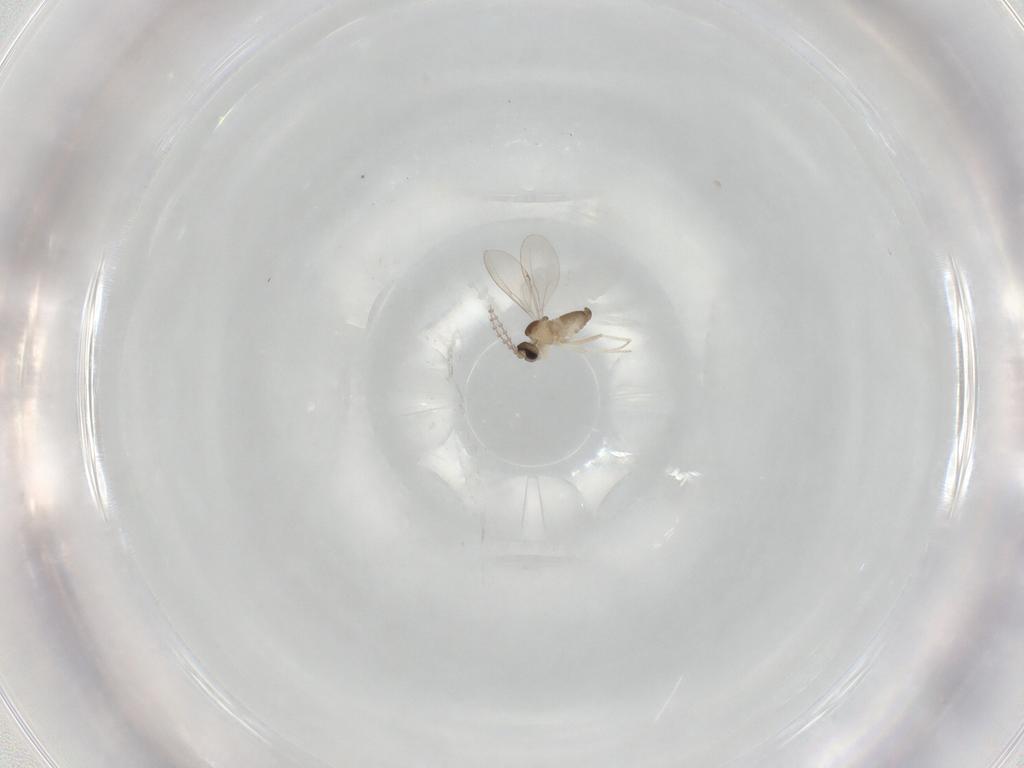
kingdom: Animalia
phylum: Arthropoda
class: Insecta
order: Diptera
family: Cecidomyiidae
